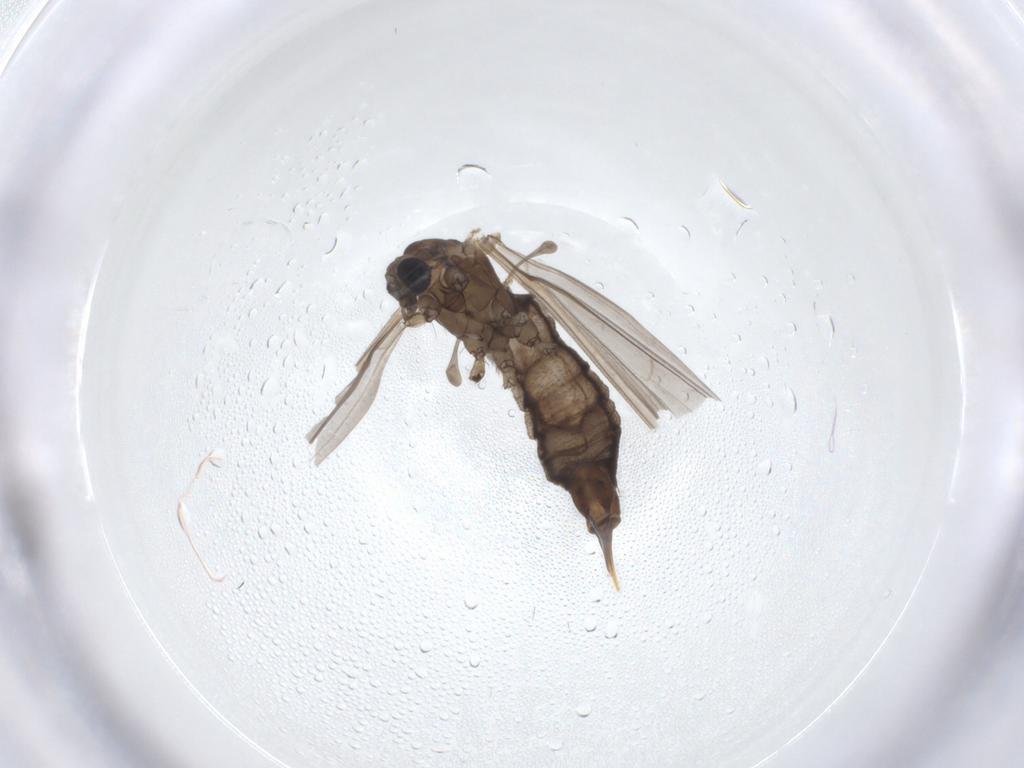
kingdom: Animalia
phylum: Arthropoda
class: Insecta
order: Diptera
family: Limoniidae
